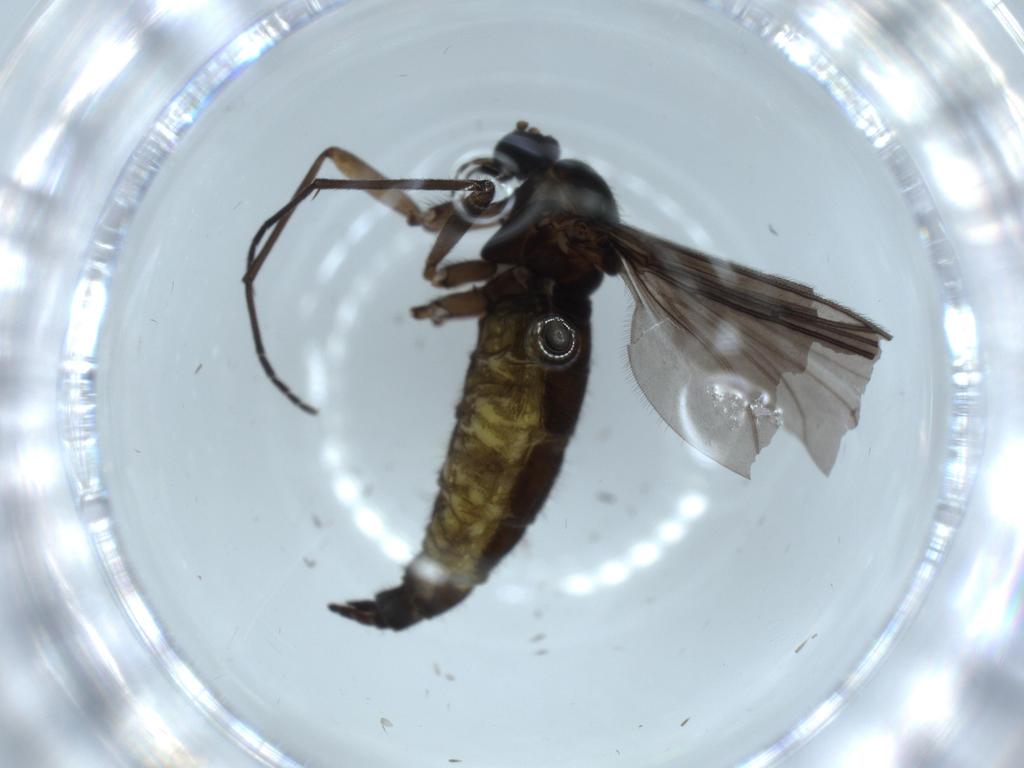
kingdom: Animalia
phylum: Arthropoda
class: Insecta
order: Diptera
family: Sciaridae
